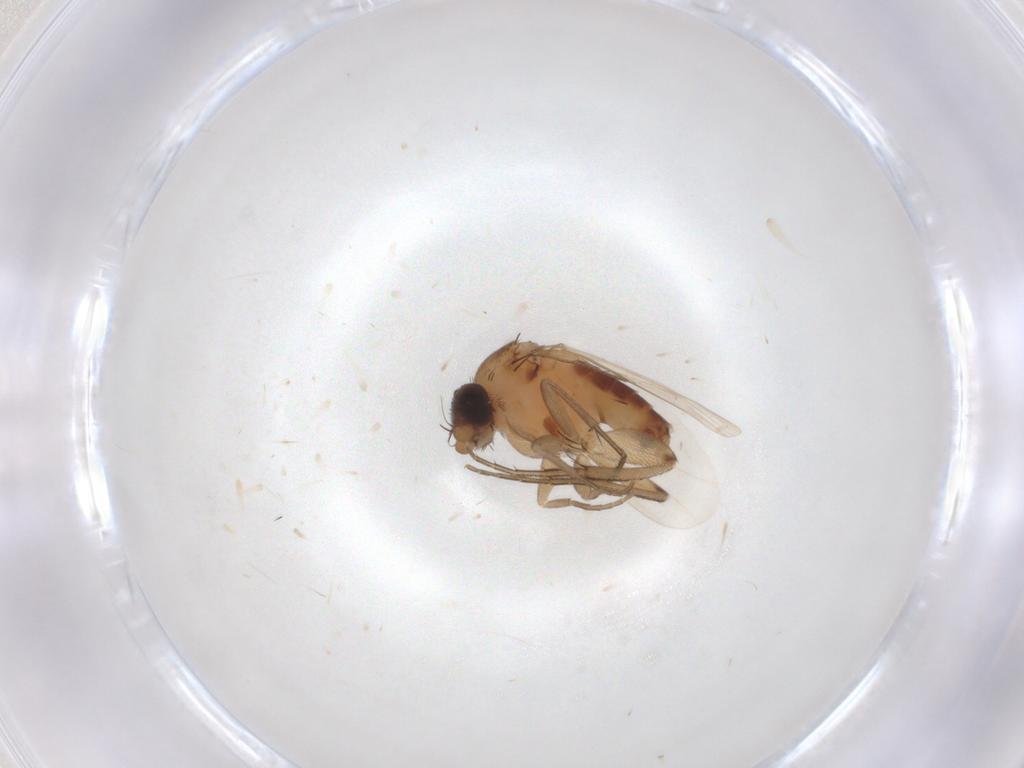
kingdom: Animalia
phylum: Arthropoda
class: Insecta
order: Diptera
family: Phoridae
